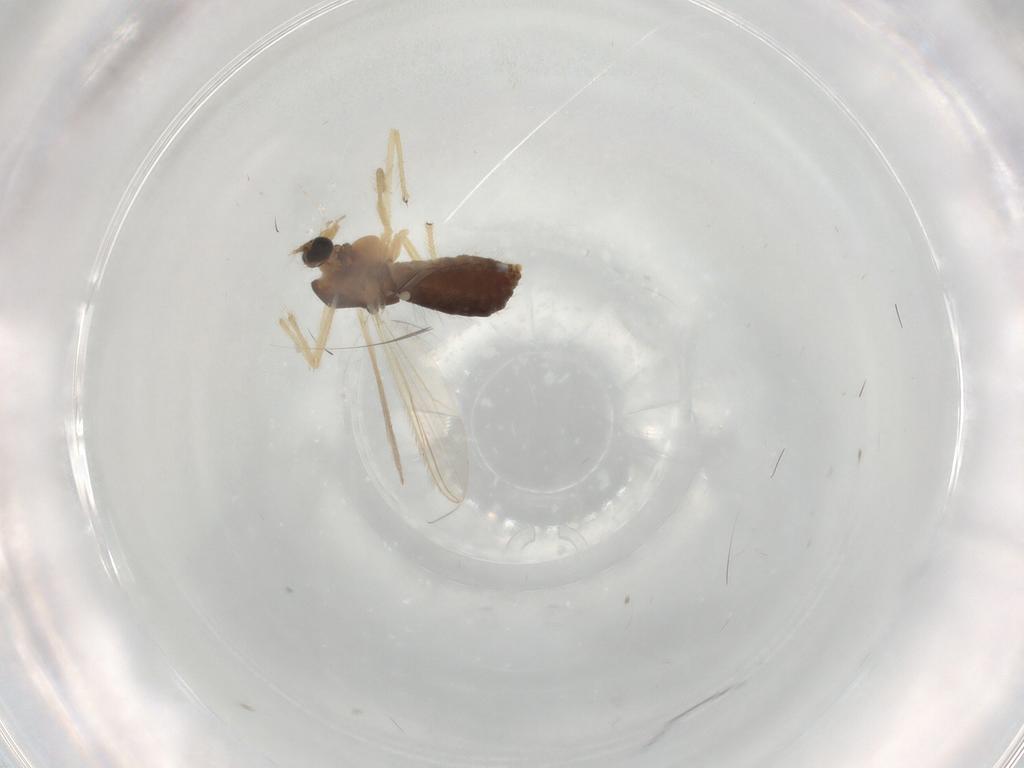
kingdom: Animalia
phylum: Arthropoda
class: Insecta
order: Diptera
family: Chironomidae
